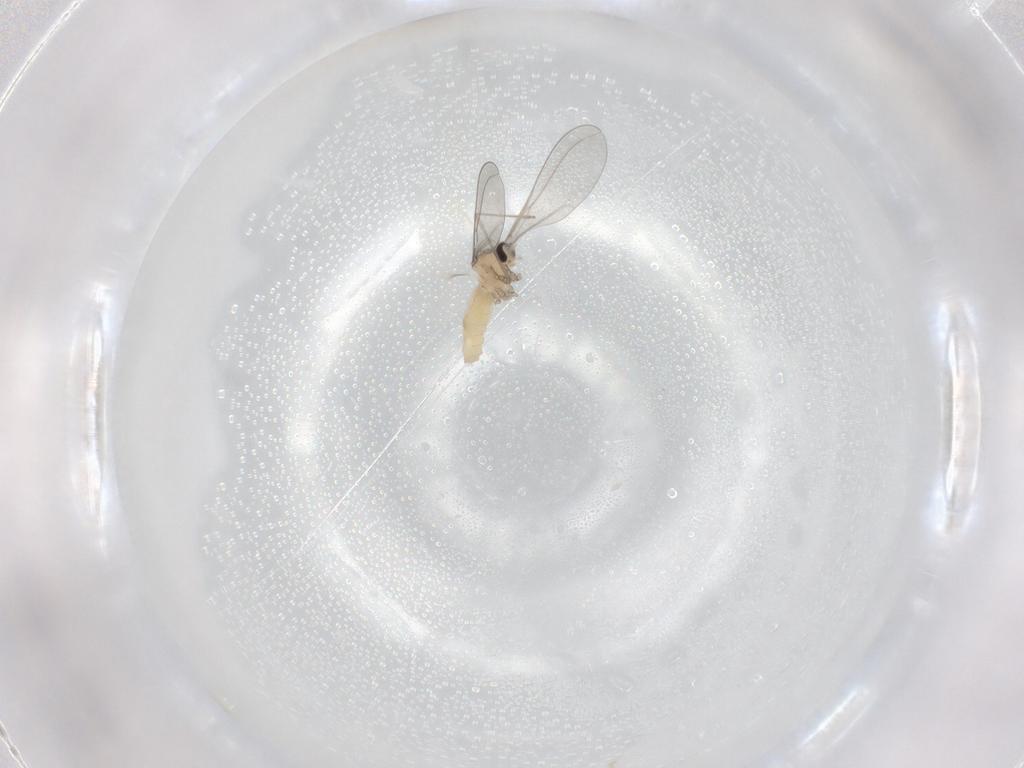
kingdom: Animalia
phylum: Arthropoda
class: Insecta
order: Diptera
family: Cecidomyiidae
